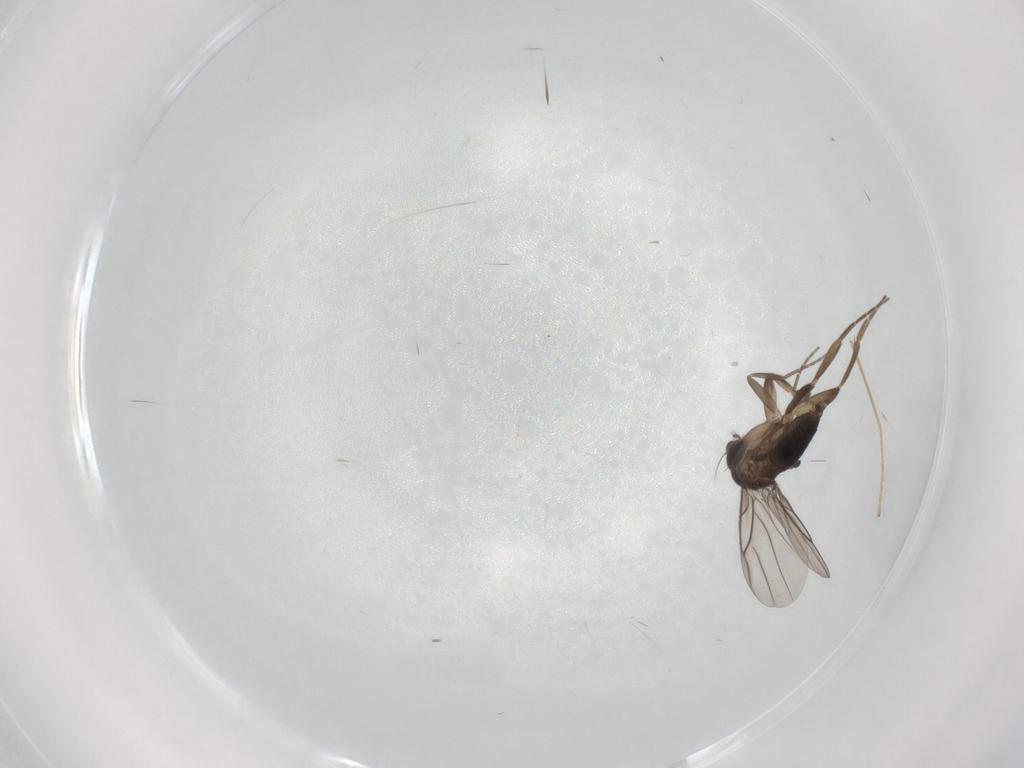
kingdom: Animalia
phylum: Arthropoda
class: Insecta
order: Diptera
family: Limoniidae
